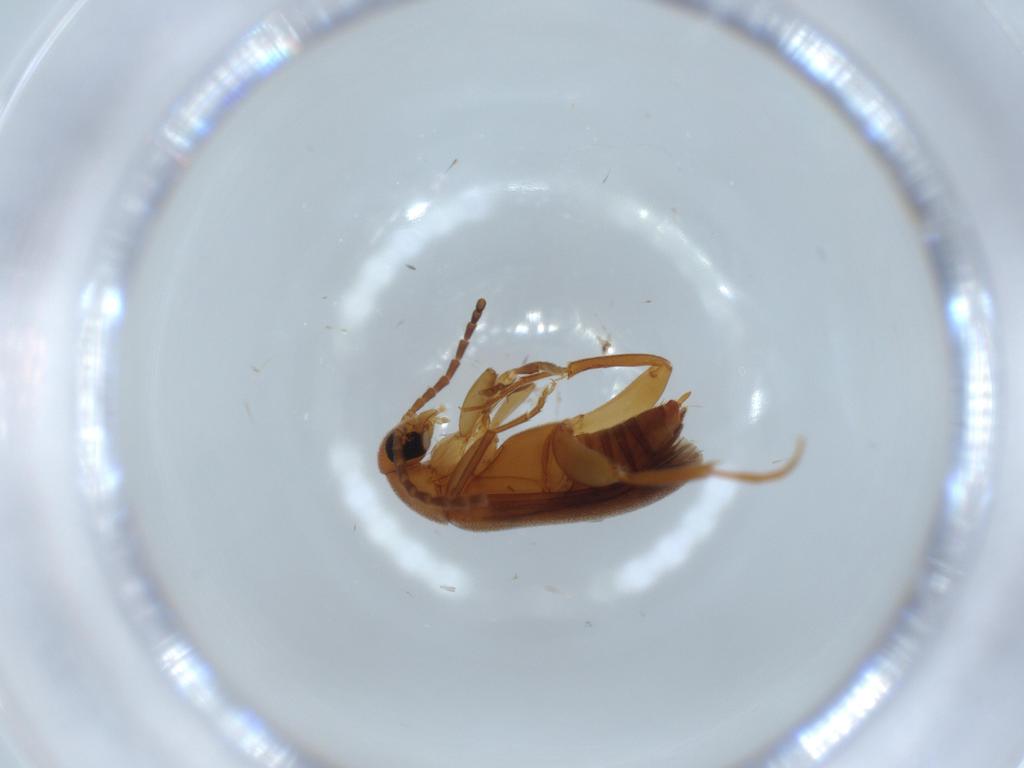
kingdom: Animalia
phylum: Arthropoda
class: Insecta
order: Coleoptera
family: Scraptiidae
